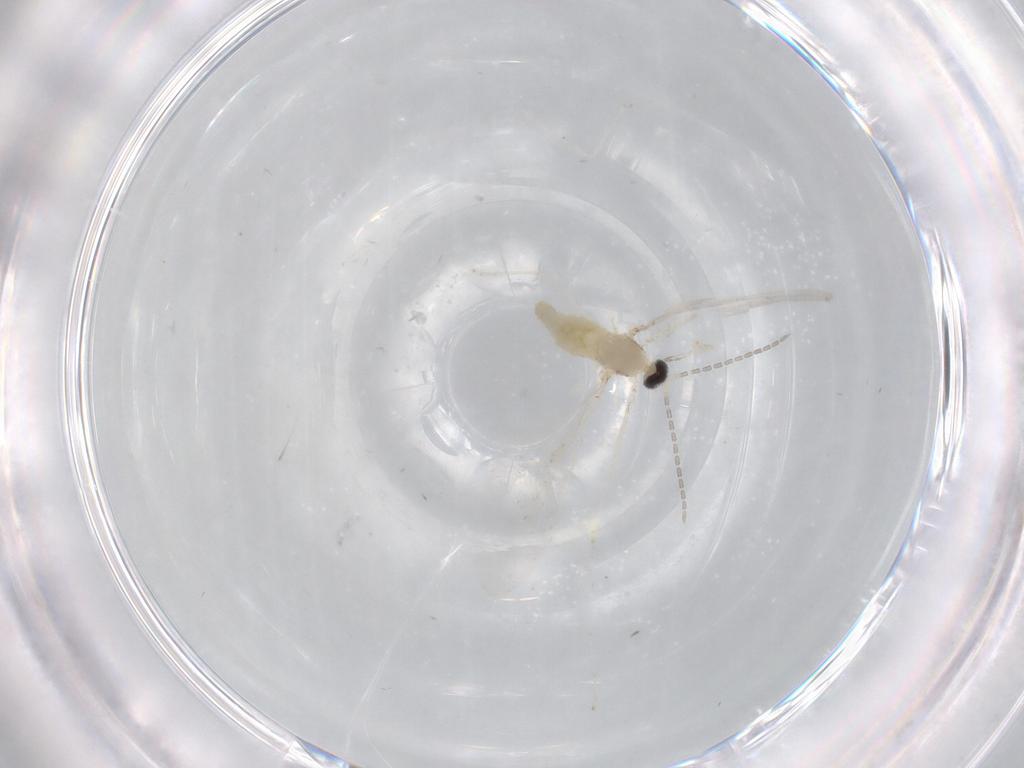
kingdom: Animalia
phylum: Arthropoda
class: Insecta
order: Diptera
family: Cecidomyiidae
